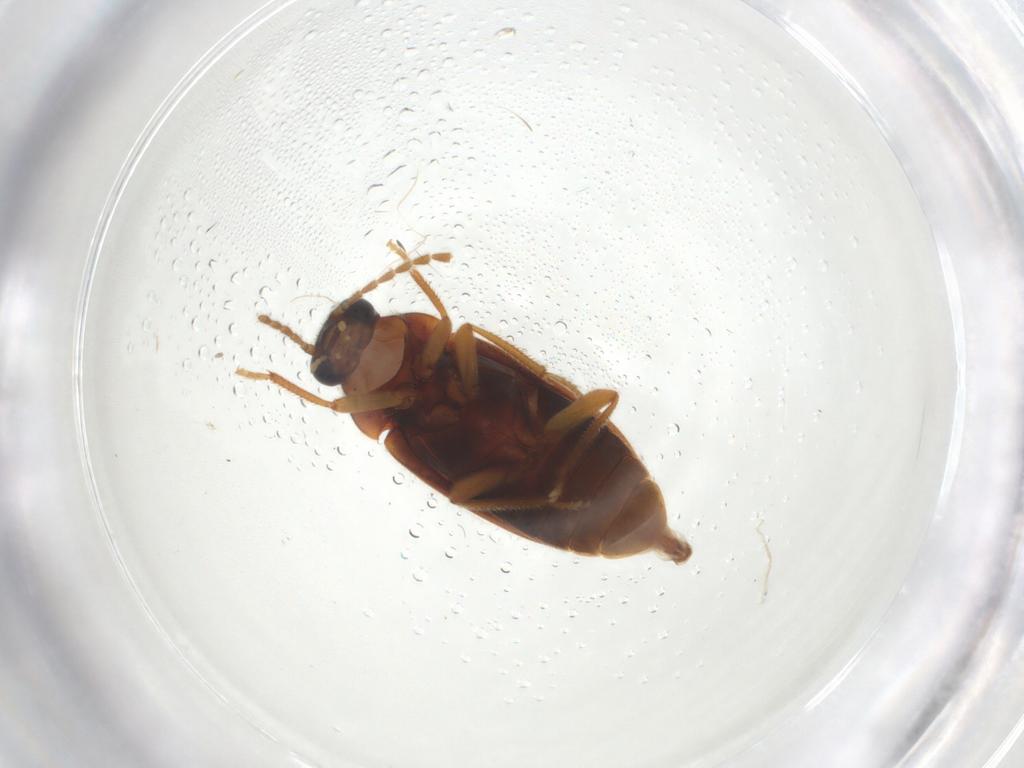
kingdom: Animalia
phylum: Arthropoda
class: Insecta
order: Coleoptera
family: Ptilodactylidae
